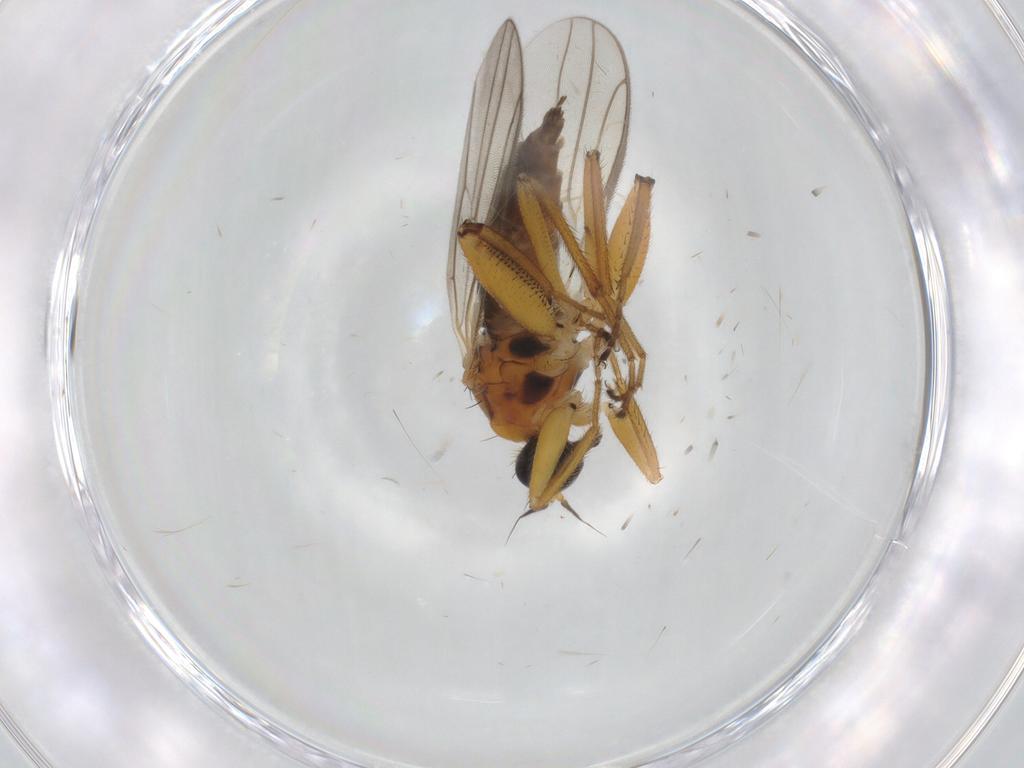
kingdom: Animalia
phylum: Arthropoda
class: Insecta
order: Diptera
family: Hybotidae
